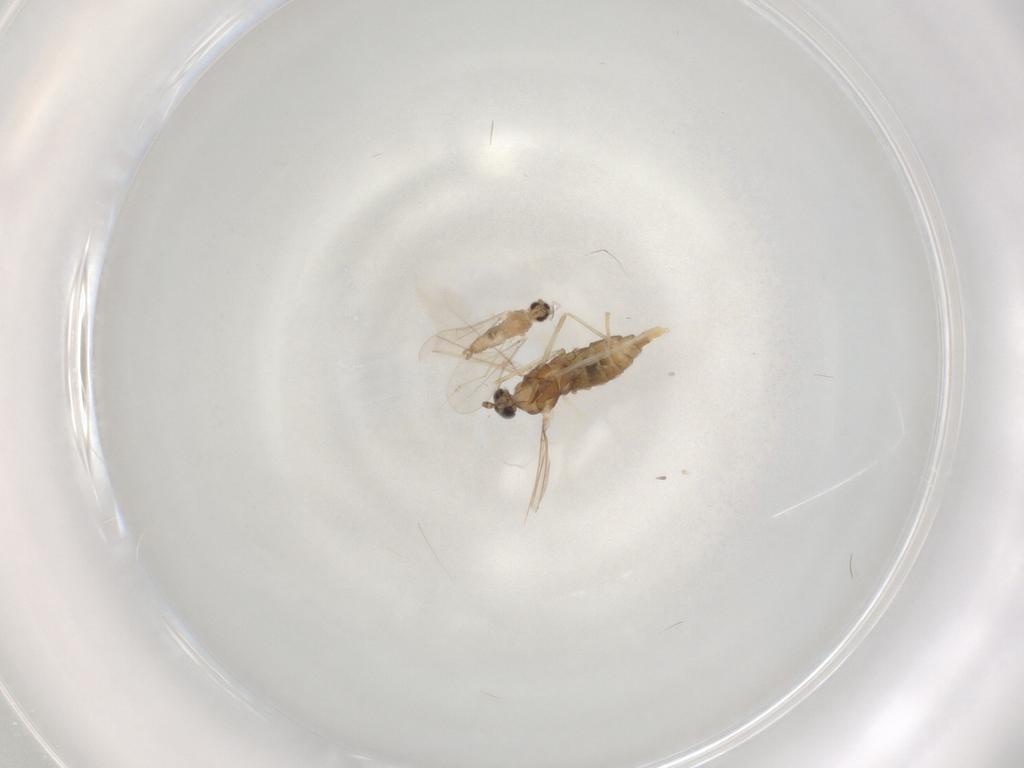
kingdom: Animalia
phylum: Arthropoda
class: Insecta
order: Diptera
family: Cecidomyiidae
